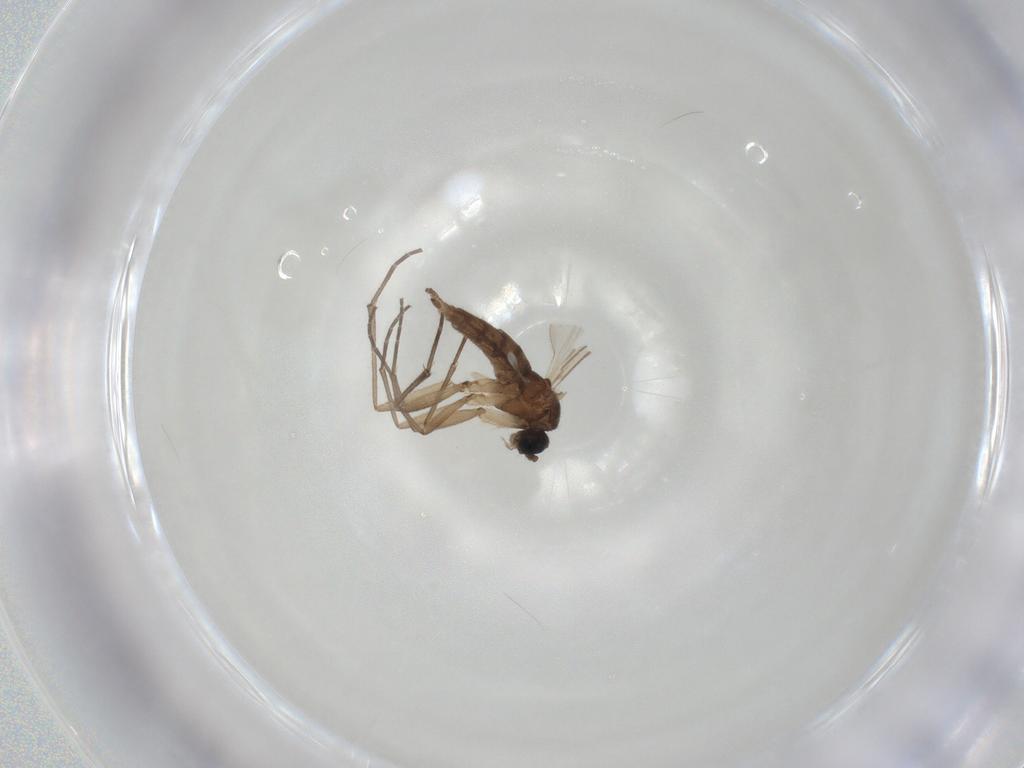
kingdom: Animalia
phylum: Arthropoda
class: Insecta
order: Diptera
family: Sciaridae
